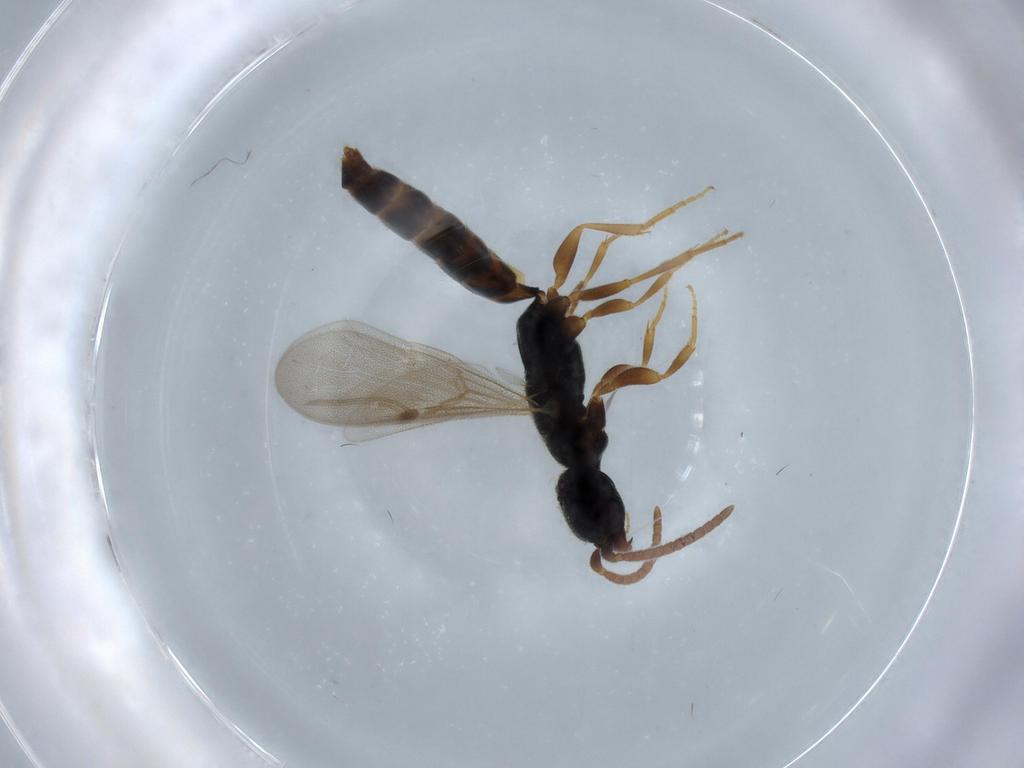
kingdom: Animalia
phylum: Arthropoda
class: Insecta
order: Hymenoptera
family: Bethylidae
